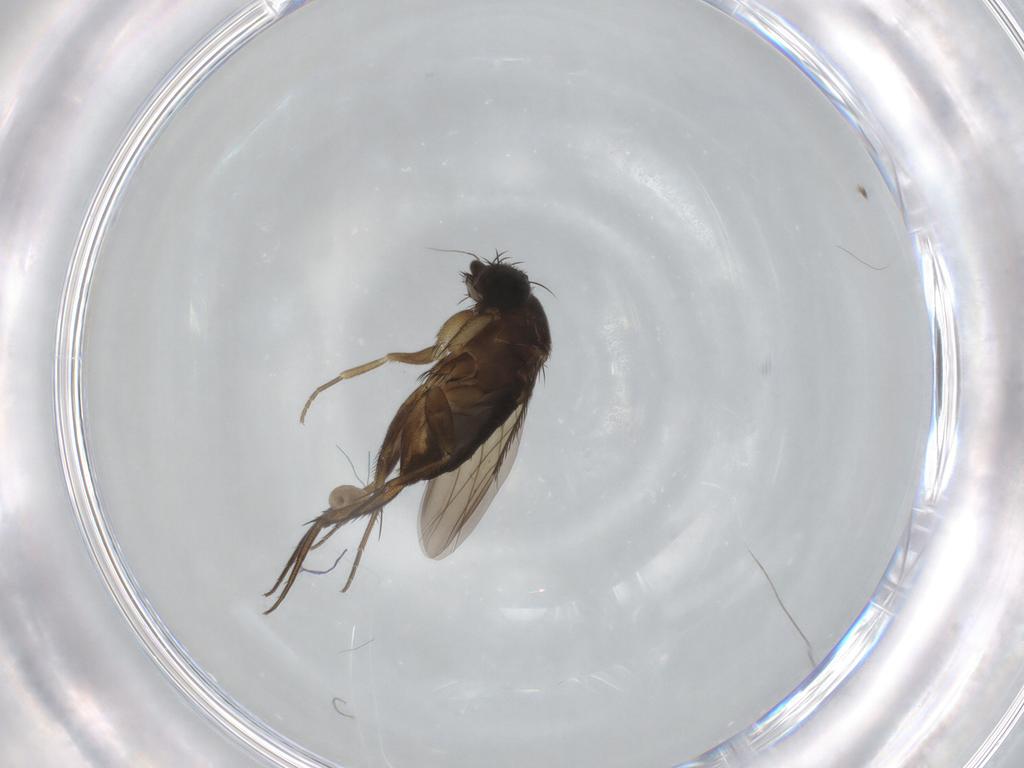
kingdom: Animalia
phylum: Arthropoda
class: Insecta
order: Diptera
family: Phoridae
